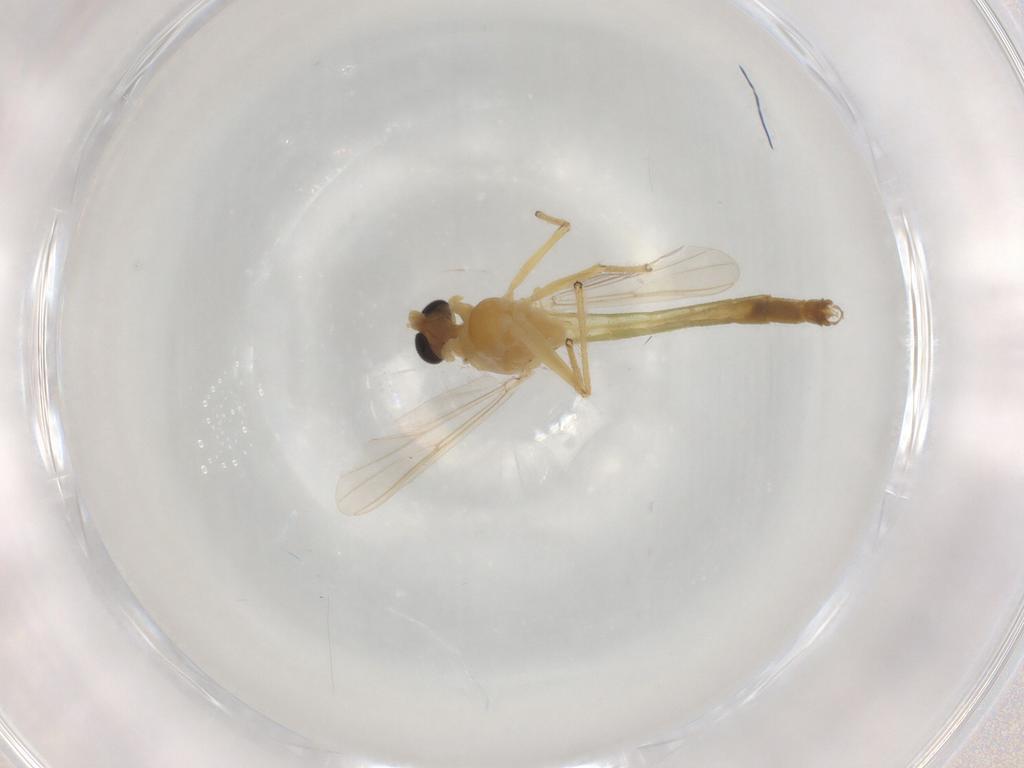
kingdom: Animalia
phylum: Arthropoda
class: Insecta
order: Diptera
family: Chironomidae
